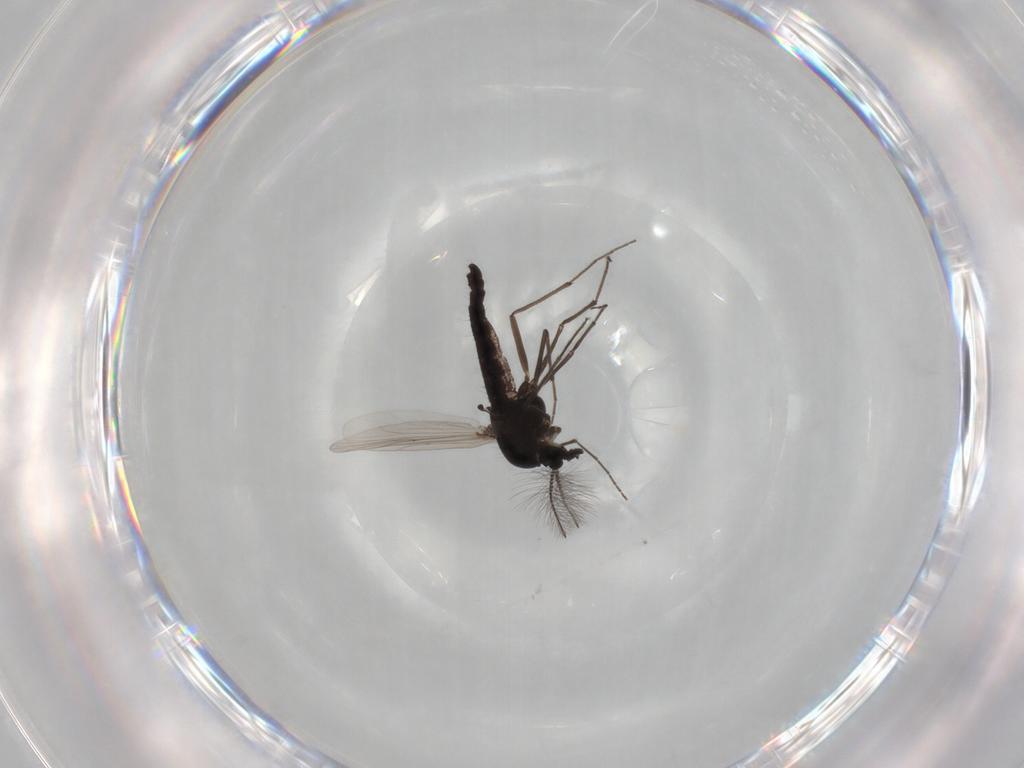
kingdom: Animalia
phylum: Arthropoda
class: Insecta
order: Diptera
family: Chironomidae
